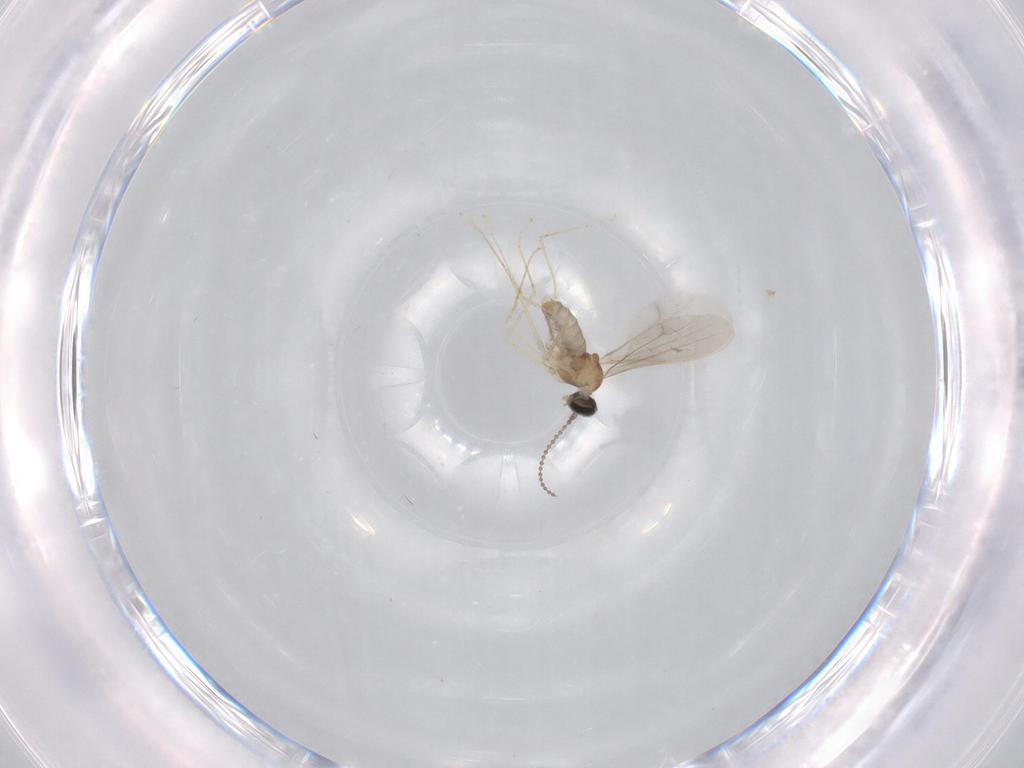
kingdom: Animalia
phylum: Arthropoda
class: Insecta
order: Diptera
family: Cecidomyiidae
